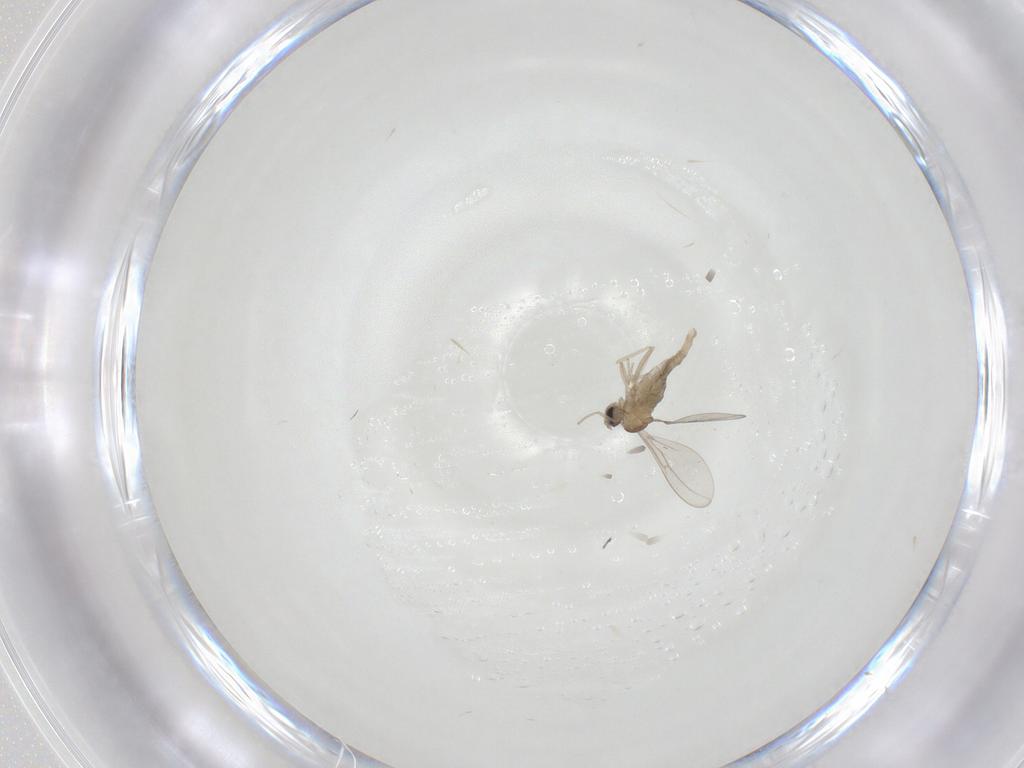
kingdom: Animalia
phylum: Arthropoda
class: Insecta
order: Diptera
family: Cecidomyiidae
